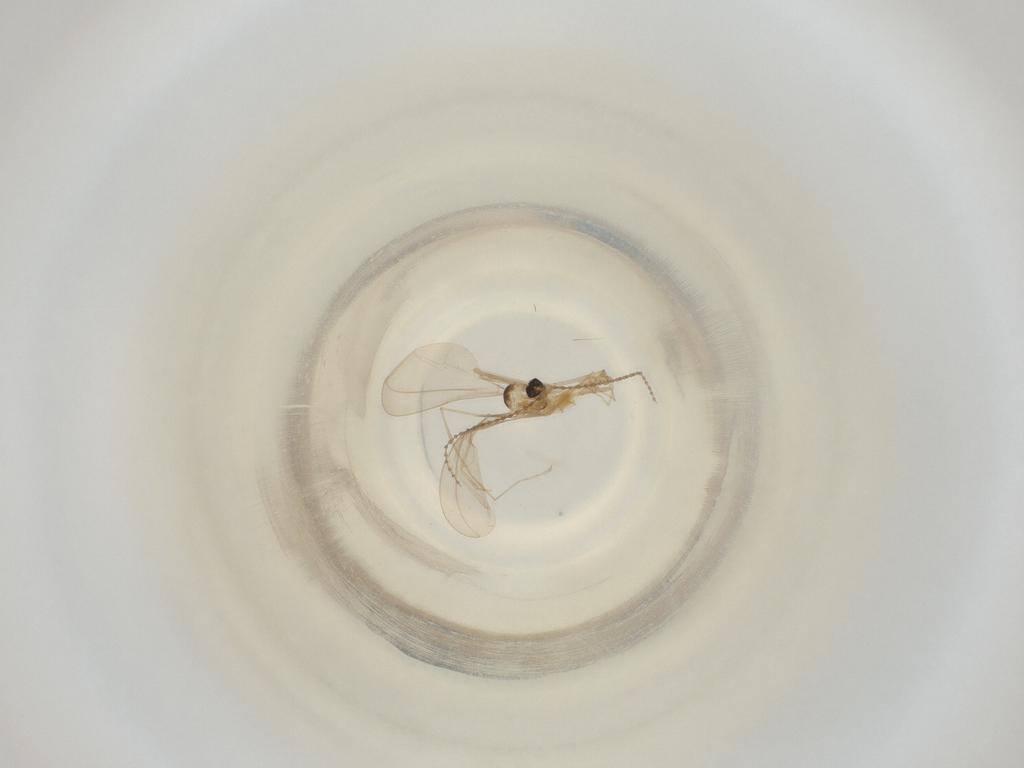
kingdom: Animalia
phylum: Arthropoda
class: Insecta
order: Diptera
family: Cecidomyiidae
